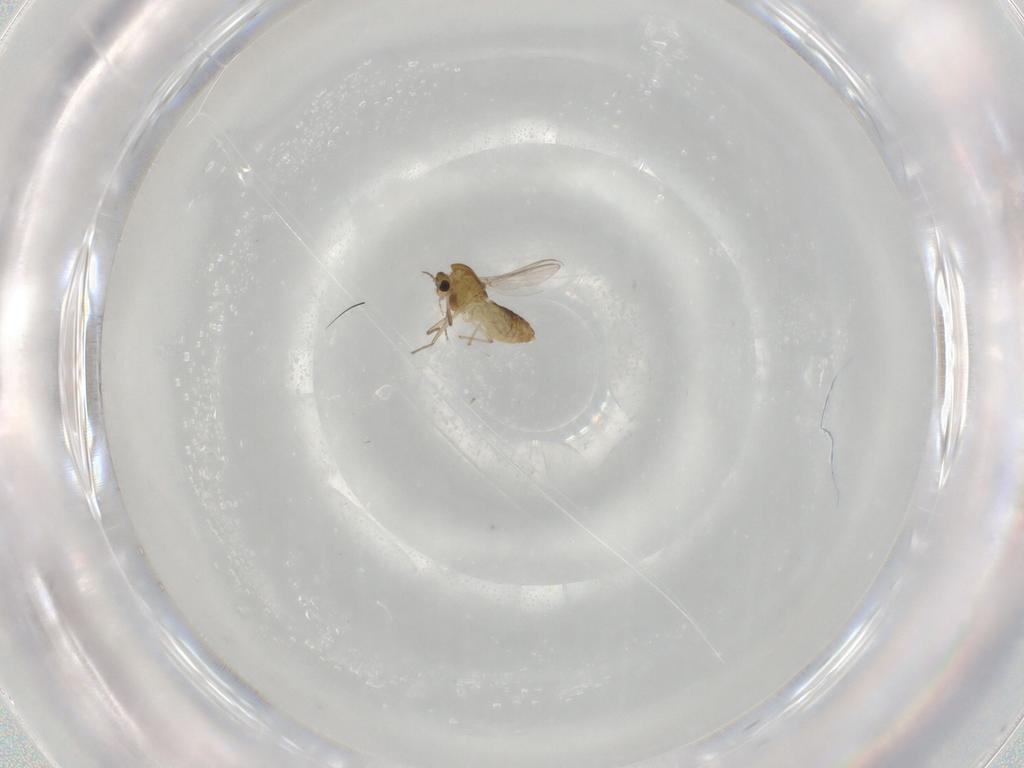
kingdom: Animalia
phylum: Arthropoda
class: Insecta
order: Diptera
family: Chironomidae
